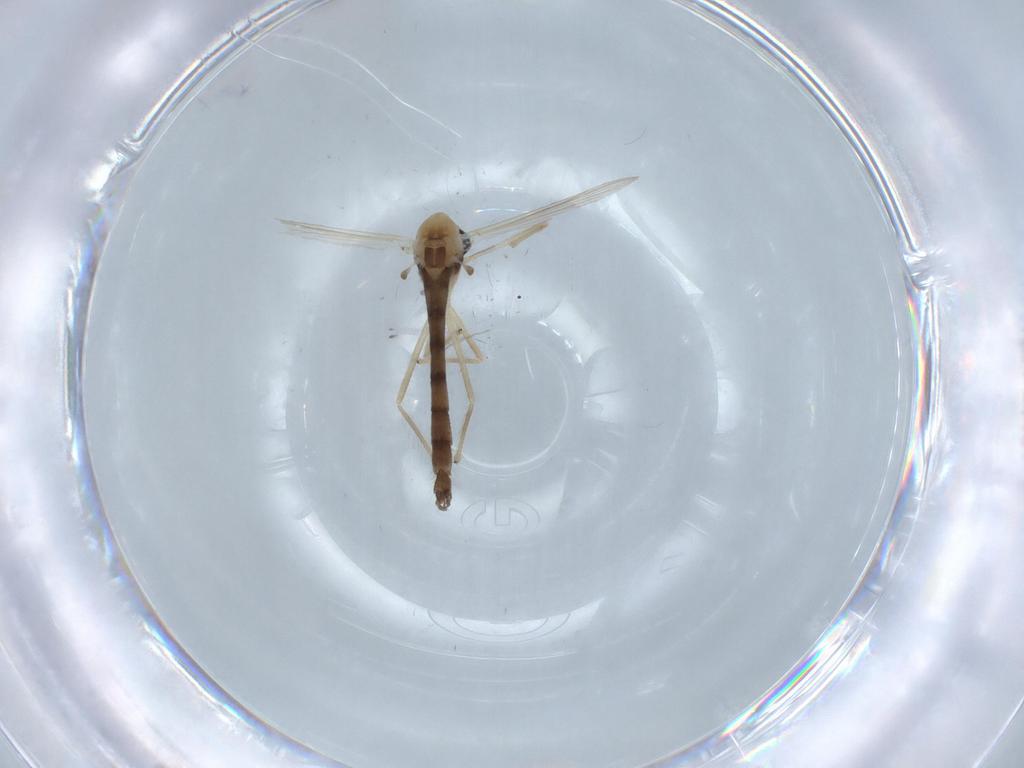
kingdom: Animalia
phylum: Arthropoda
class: Insecta
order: Diptera
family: Chironomidae
